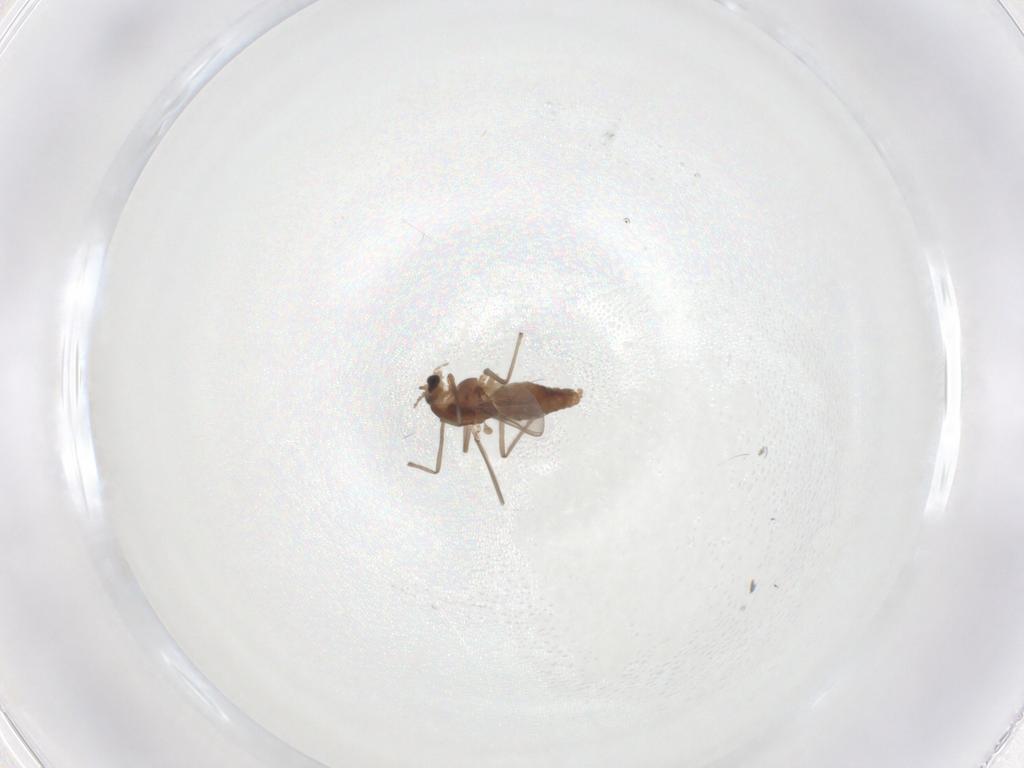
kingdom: Animalia
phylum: Arthropoda
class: Insecta
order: Diptera
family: Chironomidae
